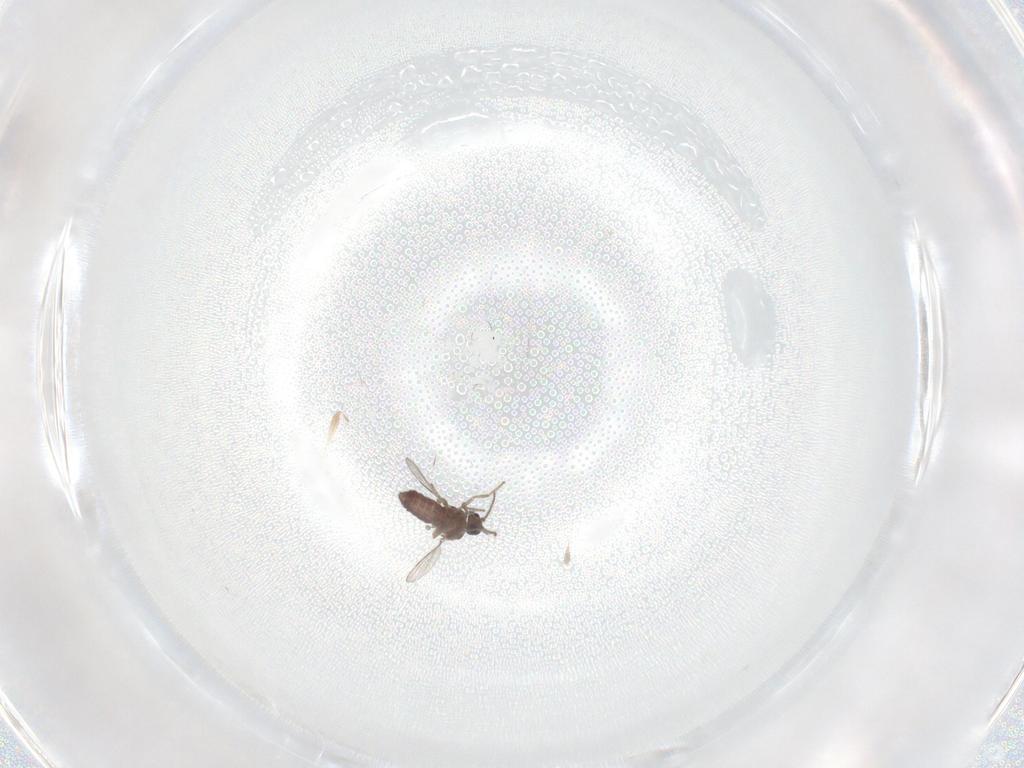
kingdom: Animalia
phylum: Arthropoda
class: Insecta
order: Diptera
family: Ceratopogonidae
